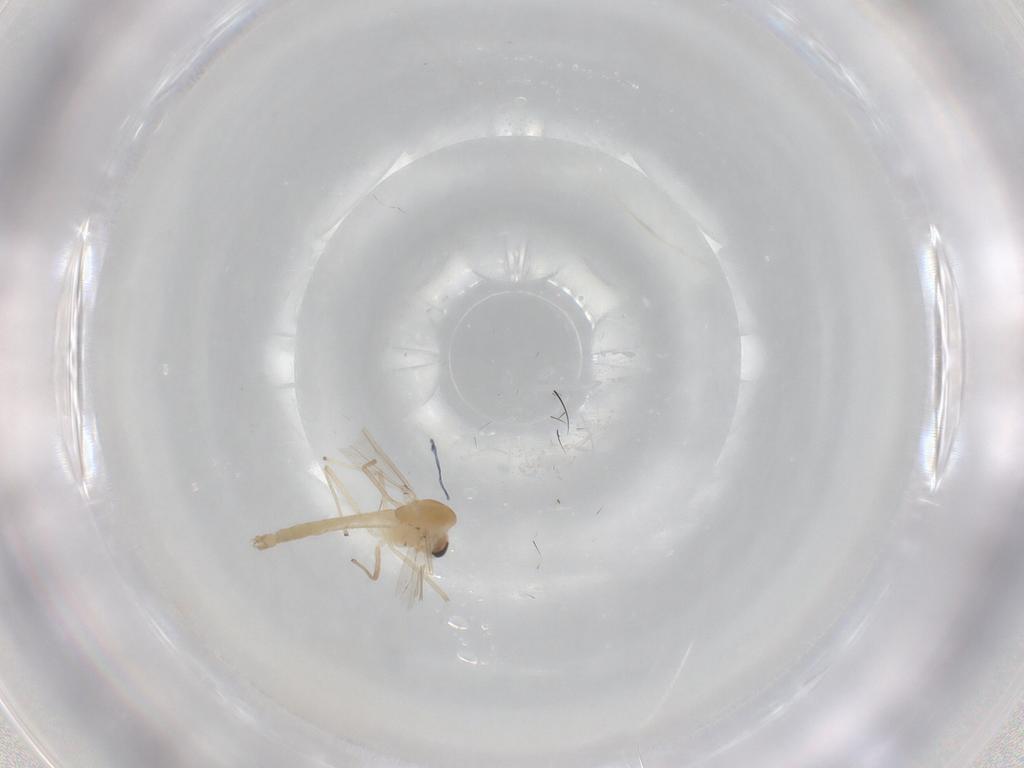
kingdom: Animalia
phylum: Arthropoda
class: Insecta
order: Diptera
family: Chironomidae
